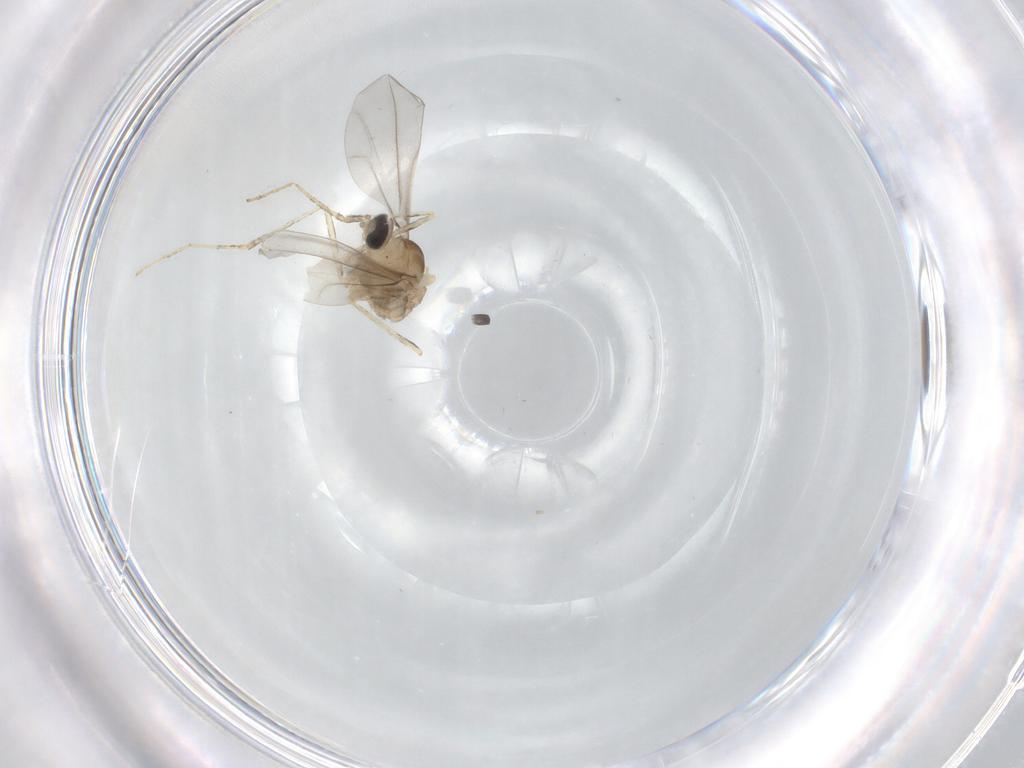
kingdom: Animalia
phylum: Arthropoda
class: Insecta
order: Diptera
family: Cecidomyiidae
